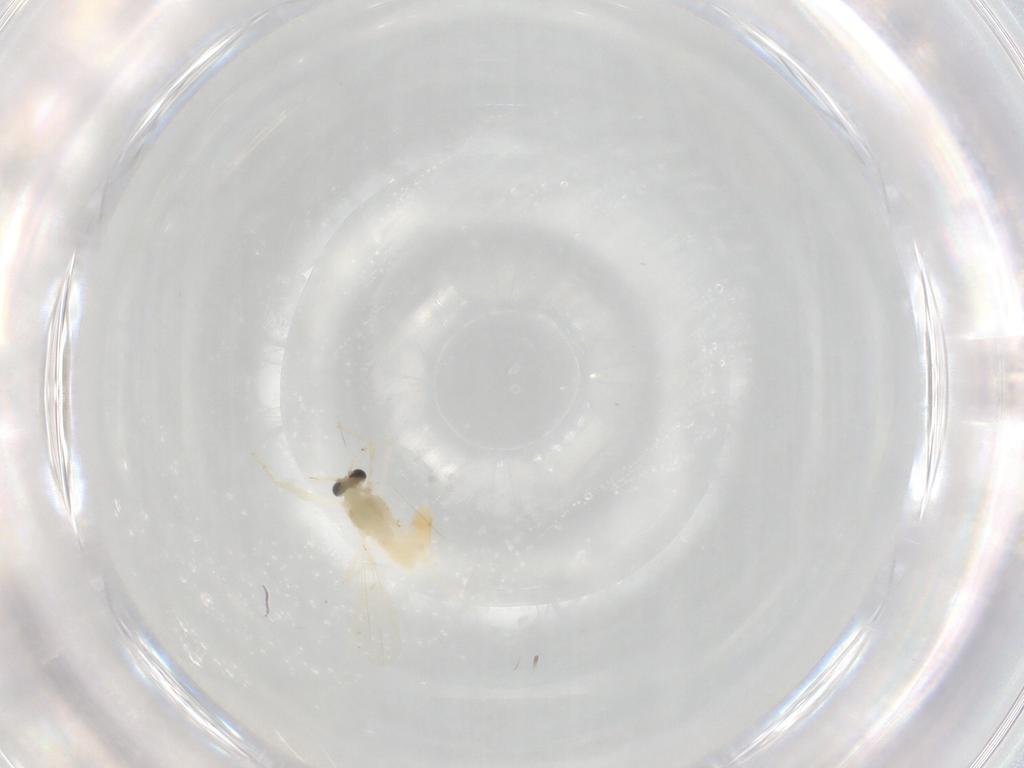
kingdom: Animalia
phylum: Arthropoda
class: Insecta
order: Diptera
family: Chironomidae
